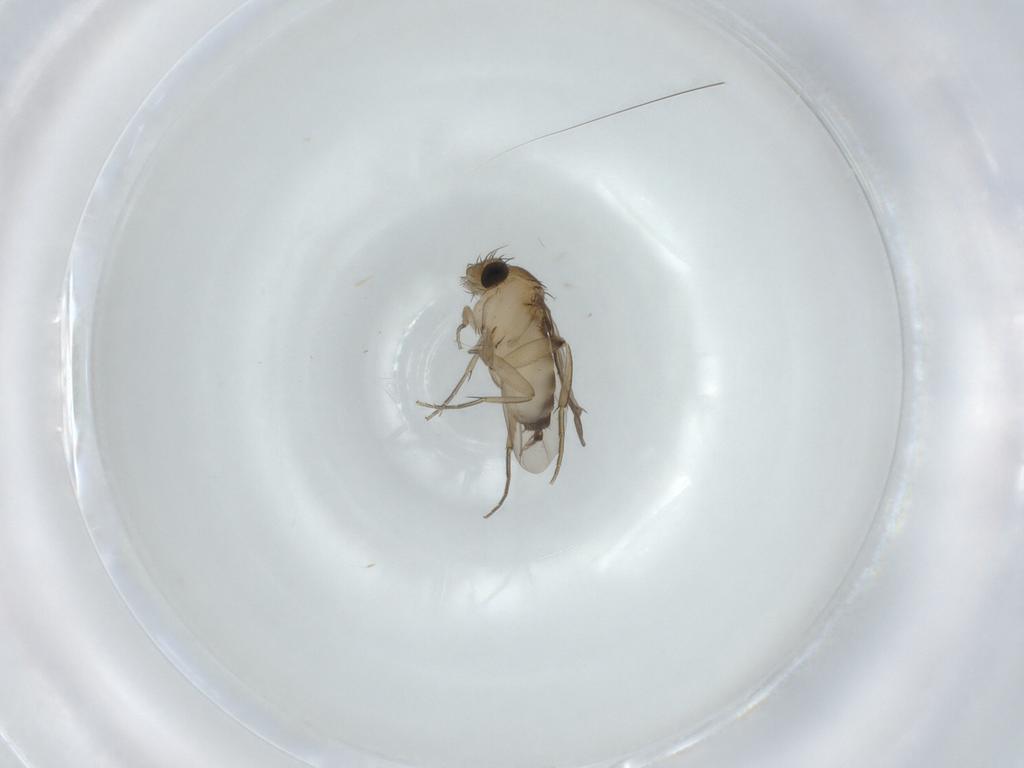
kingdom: Animalia
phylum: Arthropoda
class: Insecta
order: Diptera
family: Phoridae
